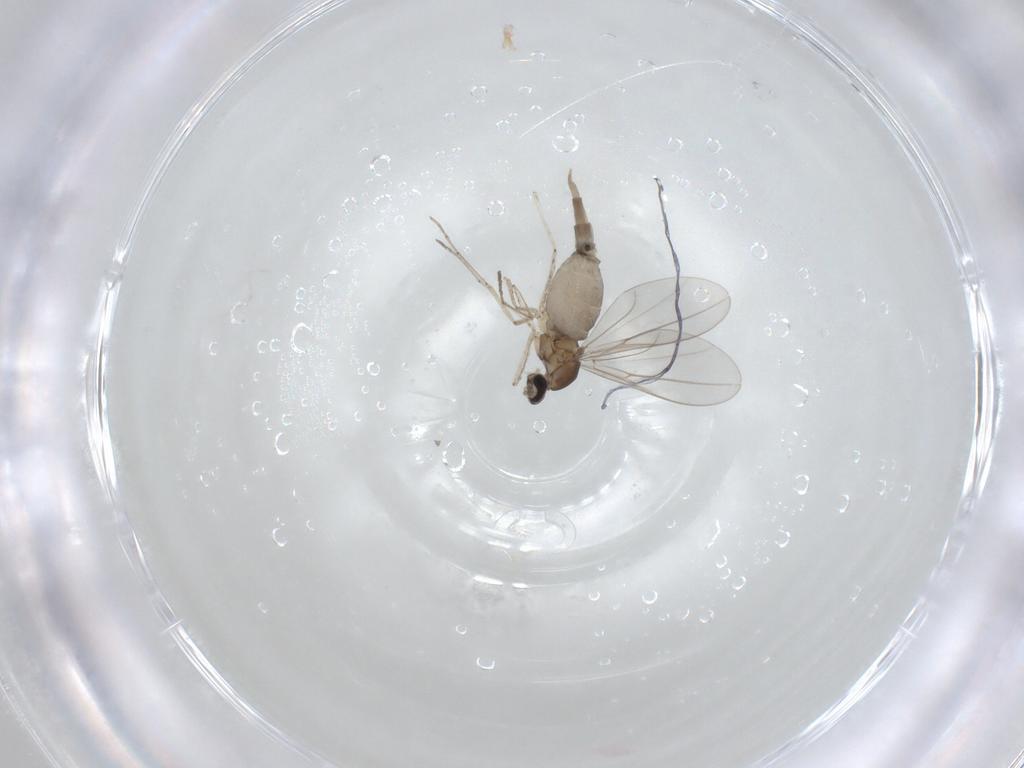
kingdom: Animalia
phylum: Arthropoda
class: Insecta
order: Diptera
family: Cecidomyiidae
